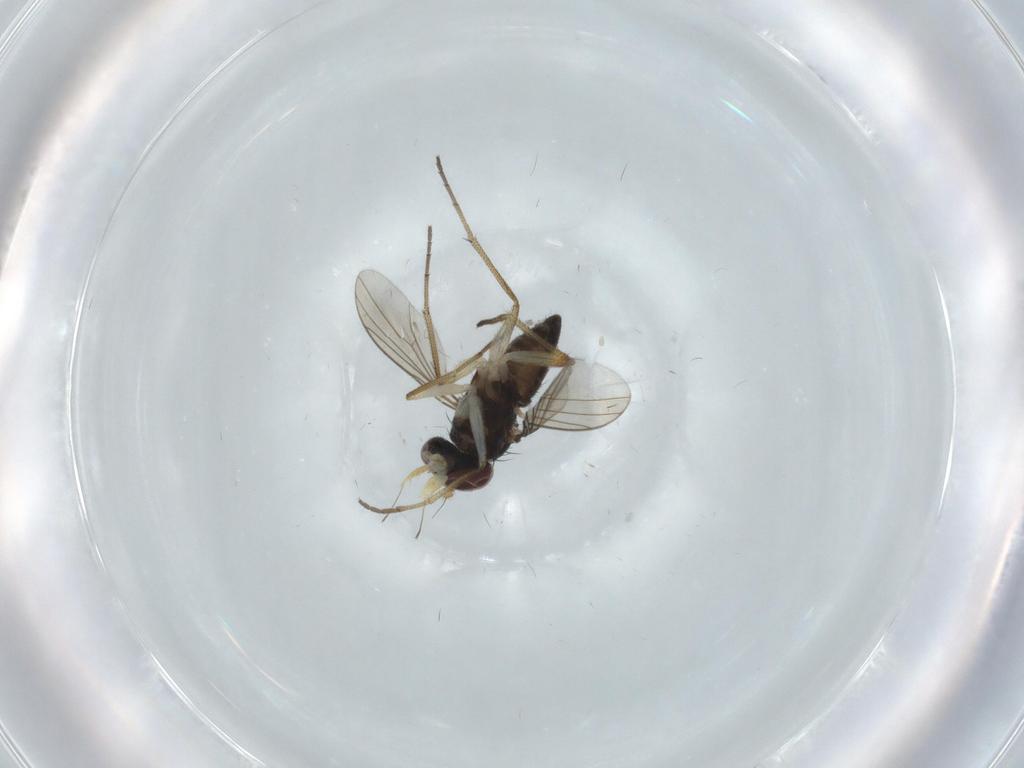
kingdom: Animalia
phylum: Arthropoda
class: Insecta
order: Diptera
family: Dolichopodidae
